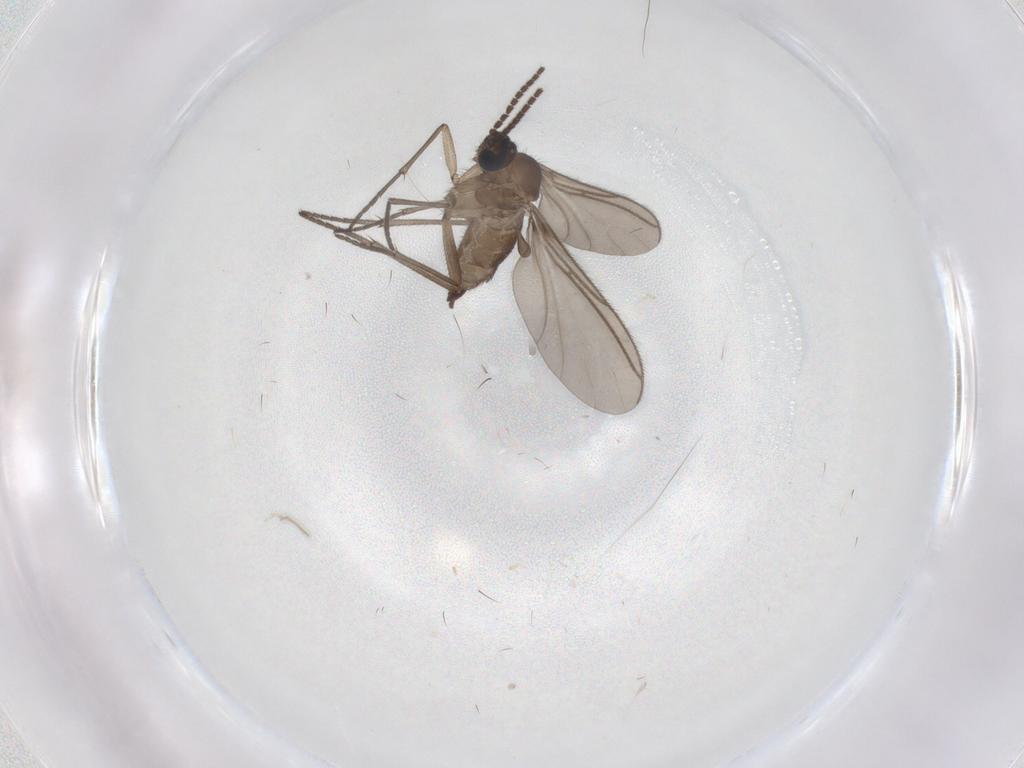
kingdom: Animalia
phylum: Arthropoda
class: Insecta
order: Diptera
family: Sciaridae
